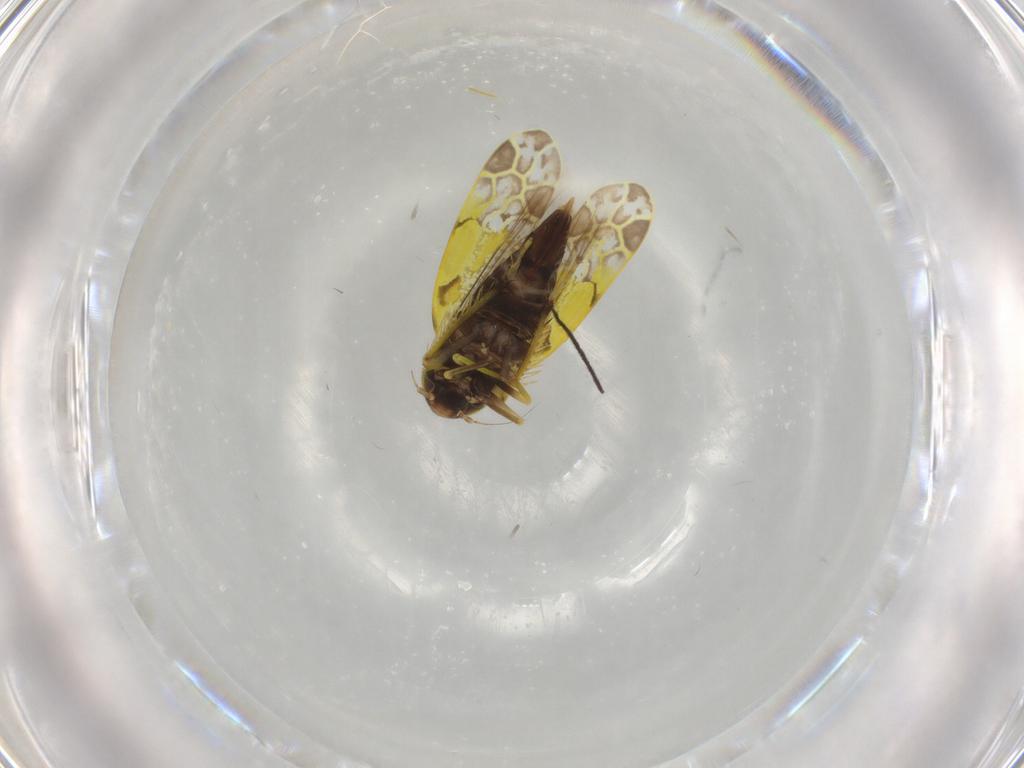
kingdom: Animalia
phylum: Arthropoda
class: Insecta
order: Hemiptera
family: Cicadellidae
